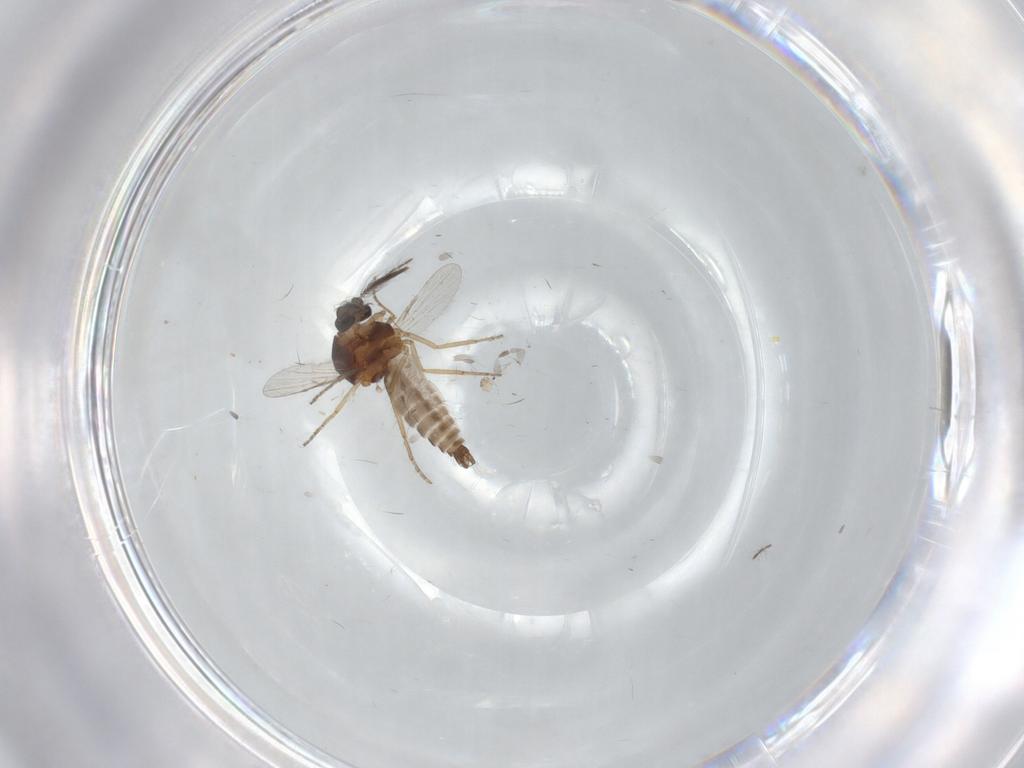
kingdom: Animalia
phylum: Arthropoda
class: Insecta
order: Diptera
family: Ceratopogonidae
